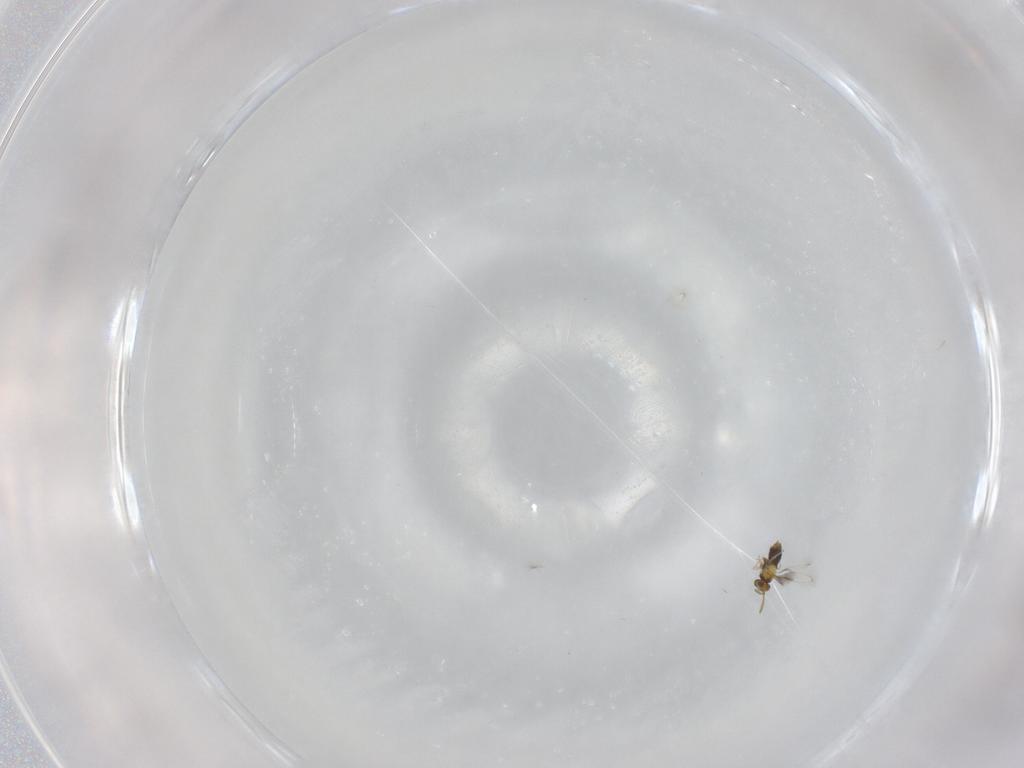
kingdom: Animalia
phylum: Arthropoda
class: Insecta
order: Hymenoptera
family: Aphelinidae
